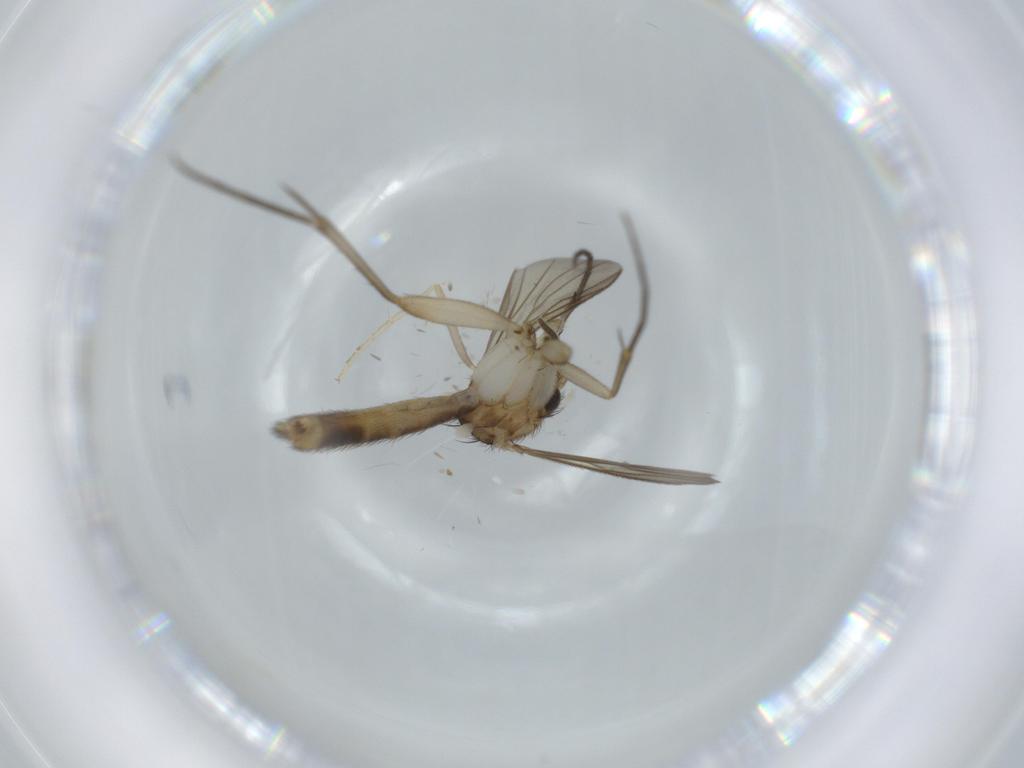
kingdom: Animalia
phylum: Arthropoda
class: Insecta
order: Diptera
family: Cecidomyiidae
